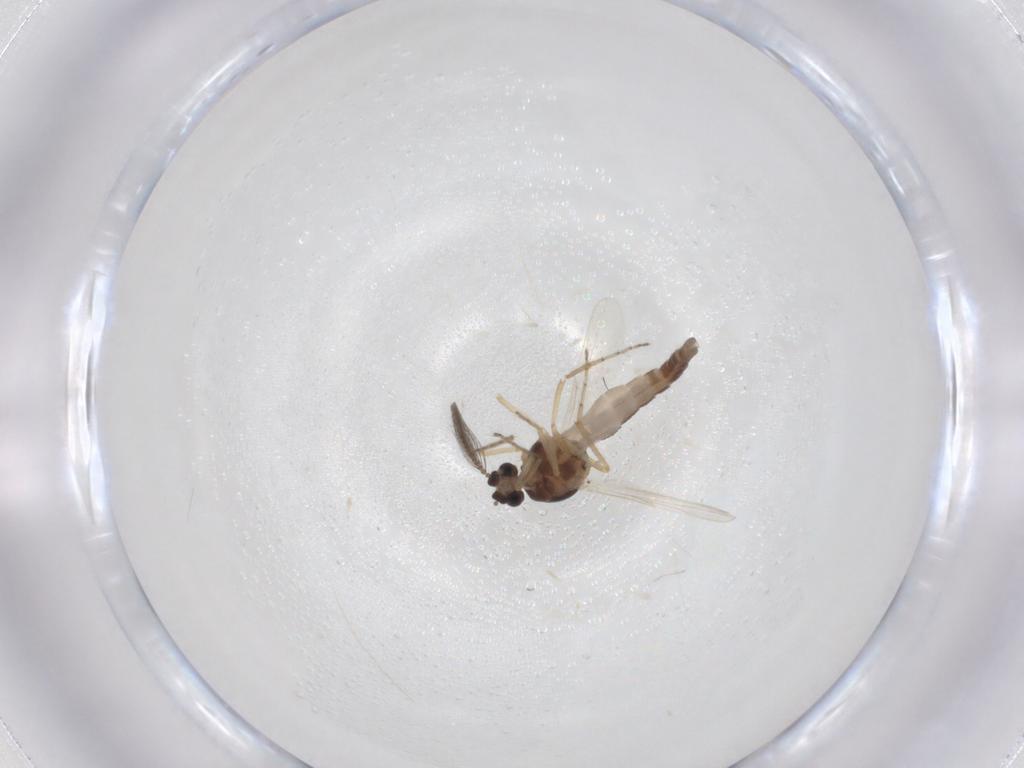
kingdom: Animalia
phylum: Arthropoda
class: Insecta
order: Diptera
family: Ceratopogonidae
